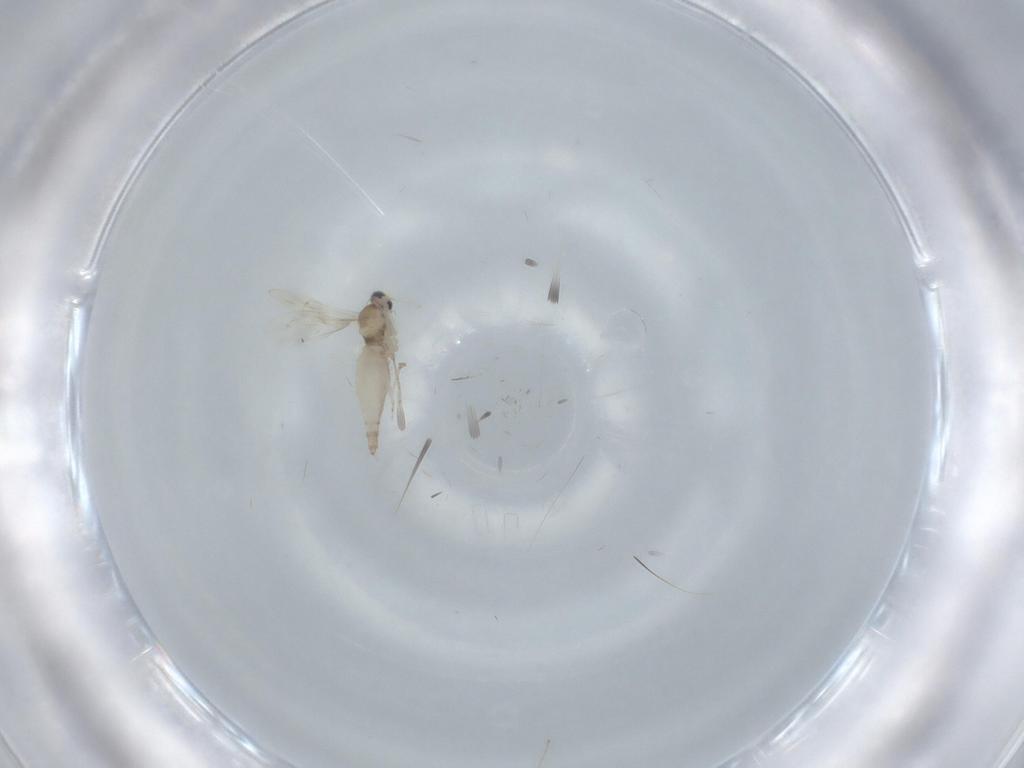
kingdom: Animalia
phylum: Arthropoda
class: Insecta
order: Diptera
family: Cecidomyiidae
